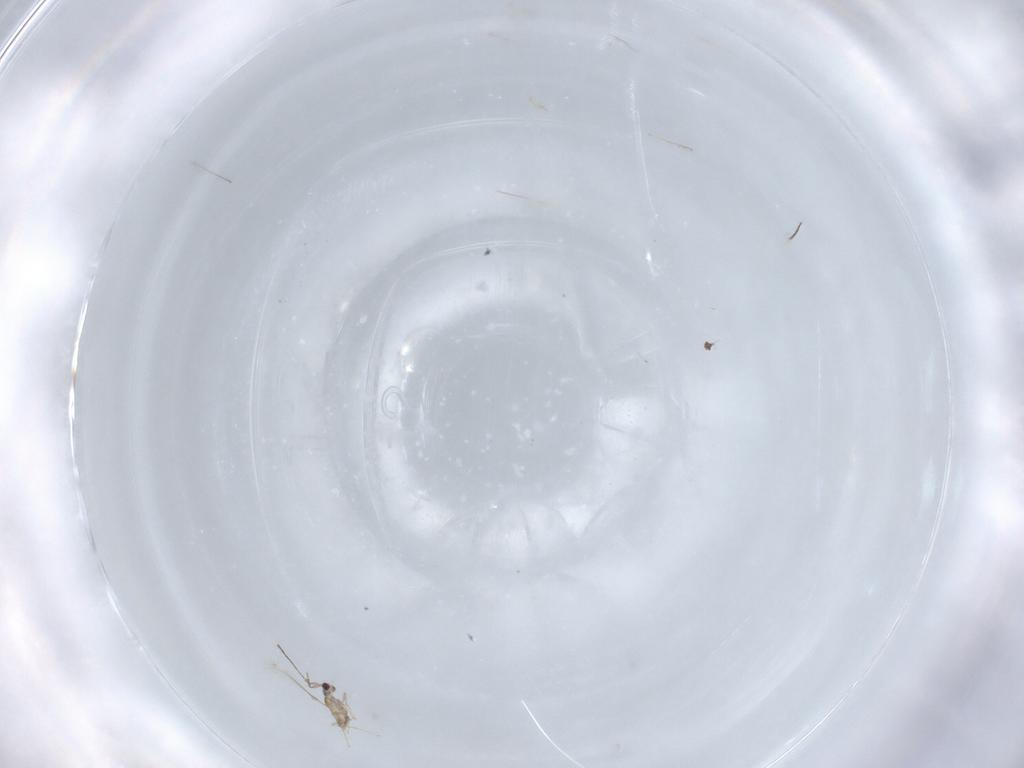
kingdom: Animalia
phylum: Arthropoda
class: Insecta
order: Hymenoptera
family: Mymaridae
